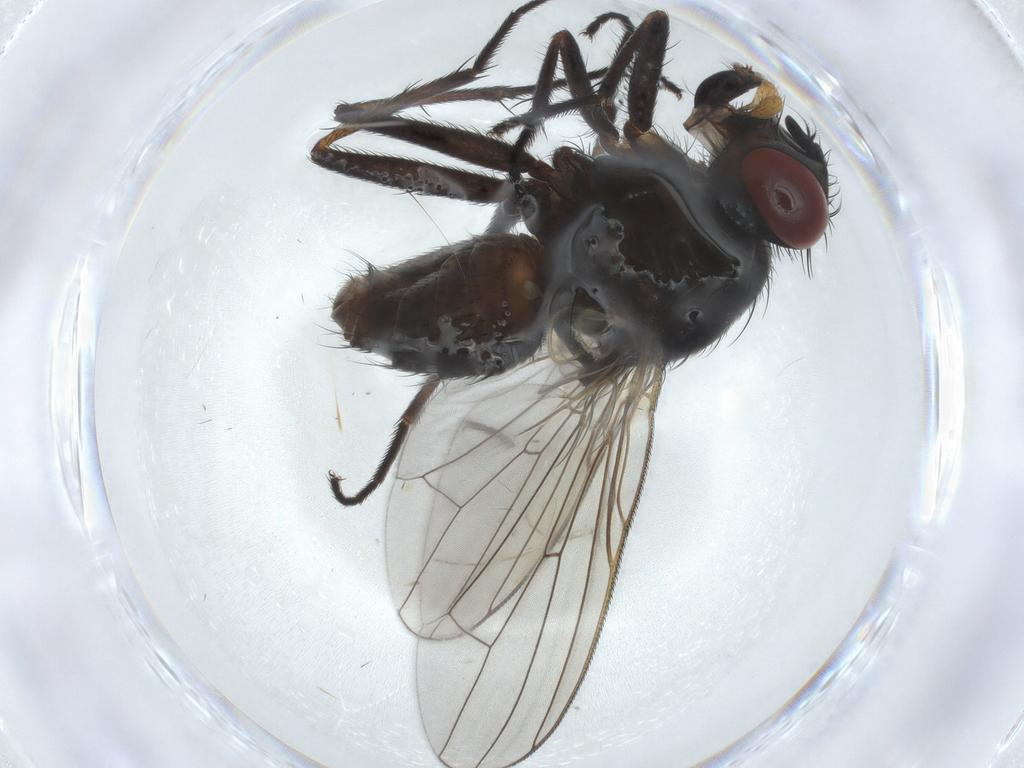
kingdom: Animalia
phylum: Arthropoda
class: Insecta
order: Diptera
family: Muscidae
